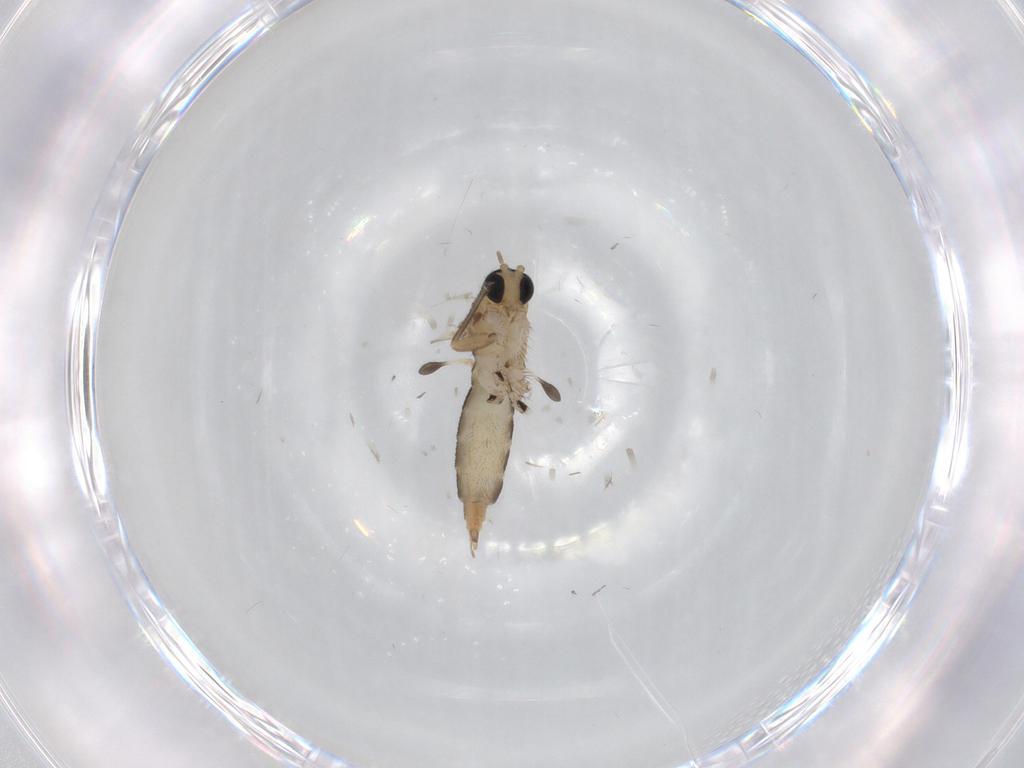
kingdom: Animalia
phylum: Arthropoda
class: Insecta
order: Diptera
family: Sciaridae
